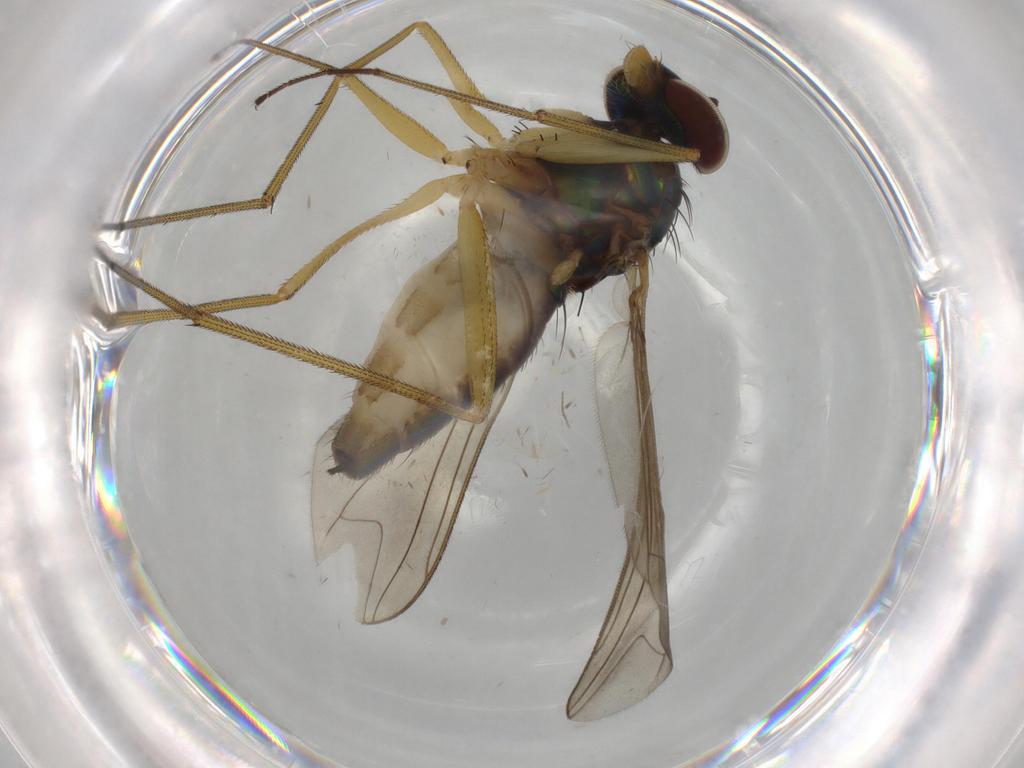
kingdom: Animalia
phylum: Arthropoda
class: Insecta
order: Diptera
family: Dolichopodidae
